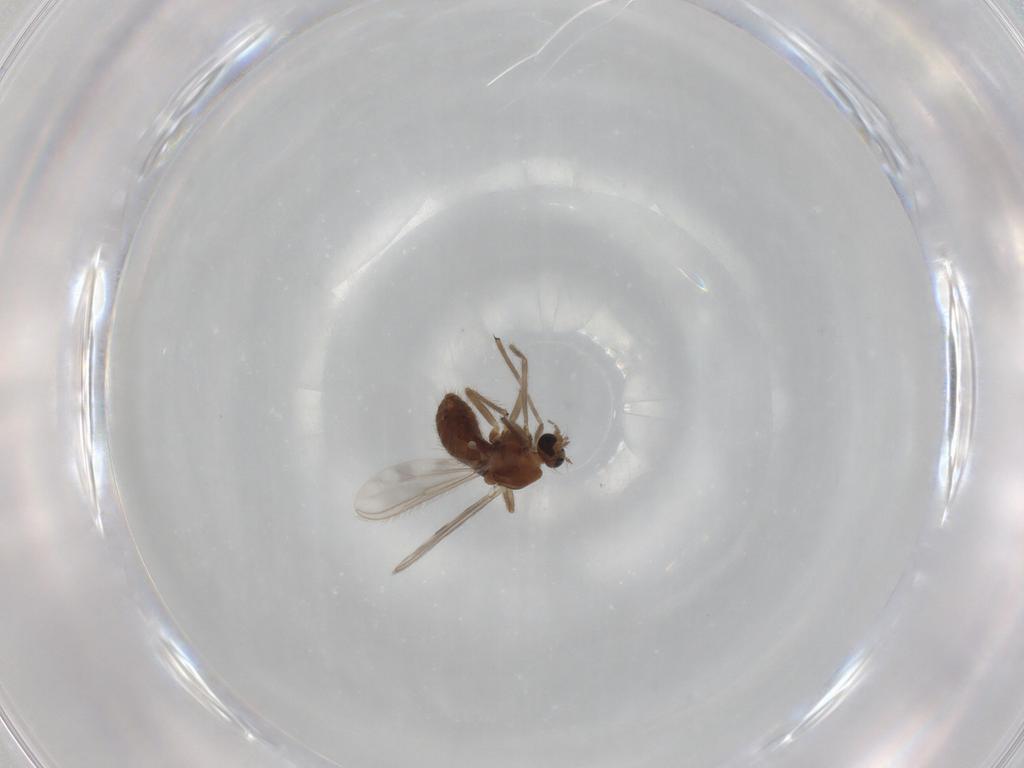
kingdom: Animalia
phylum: Arthropoda
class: Insecta
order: Diptera
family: Chironomidae
